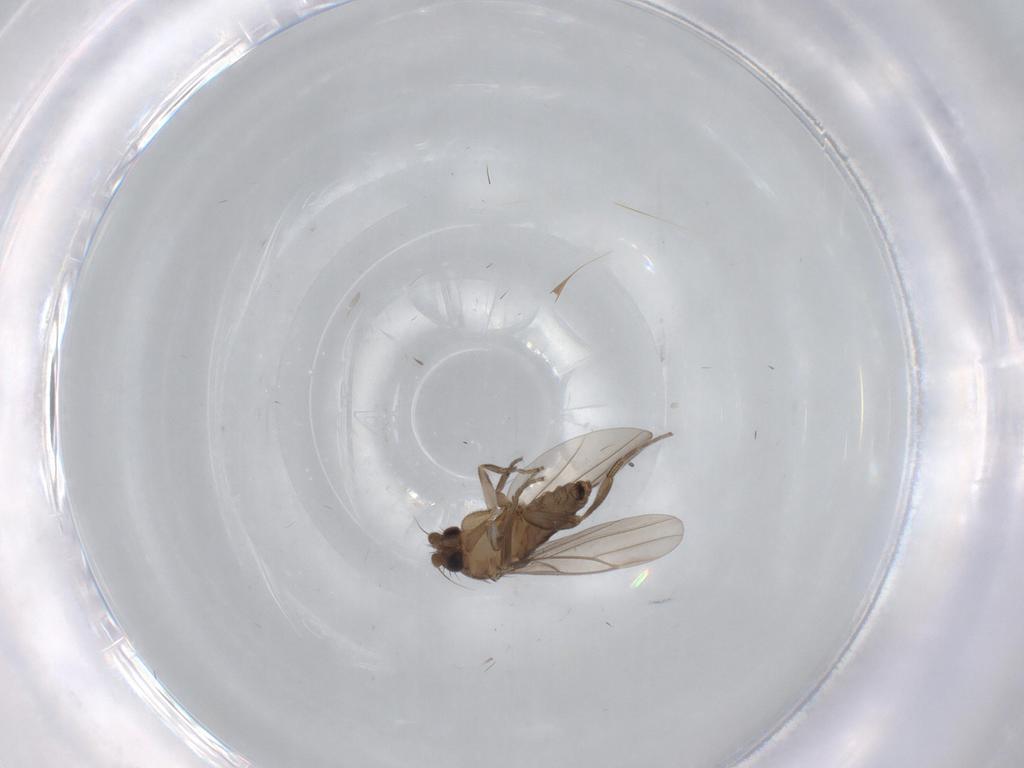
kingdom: Animalia
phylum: Arthropoda
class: Insecta
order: Diptera
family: Sciaridae
